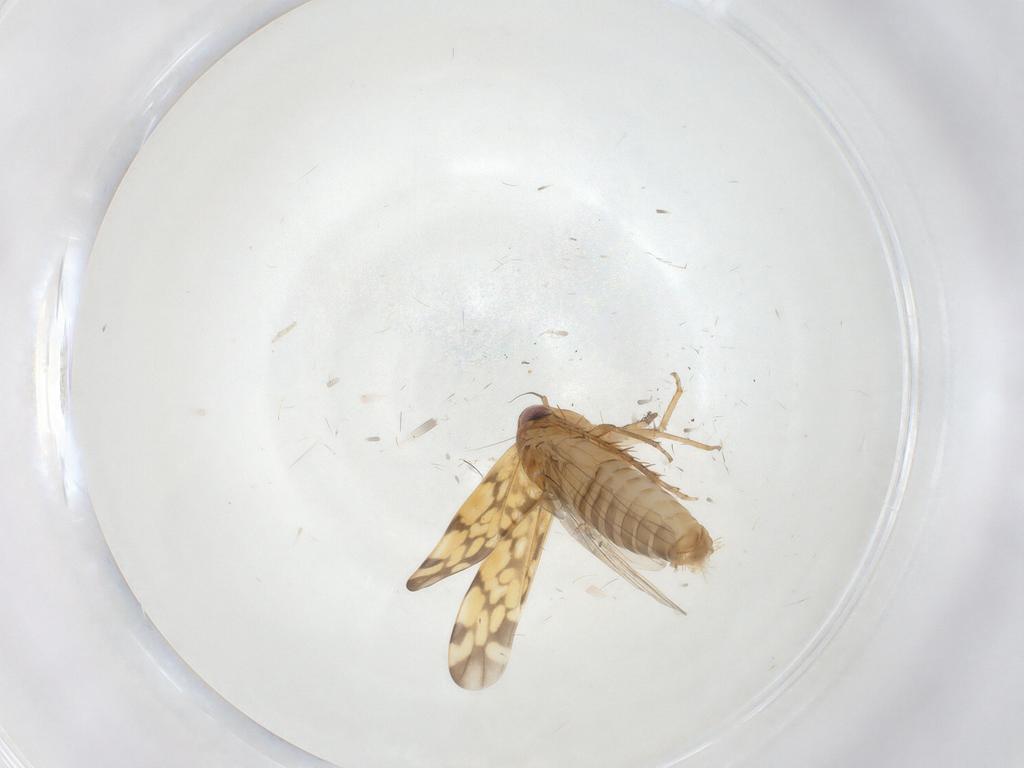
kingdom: Animalia
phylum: Arthropoda
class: Insecta
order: Hemiptera
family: Cicadellidae
